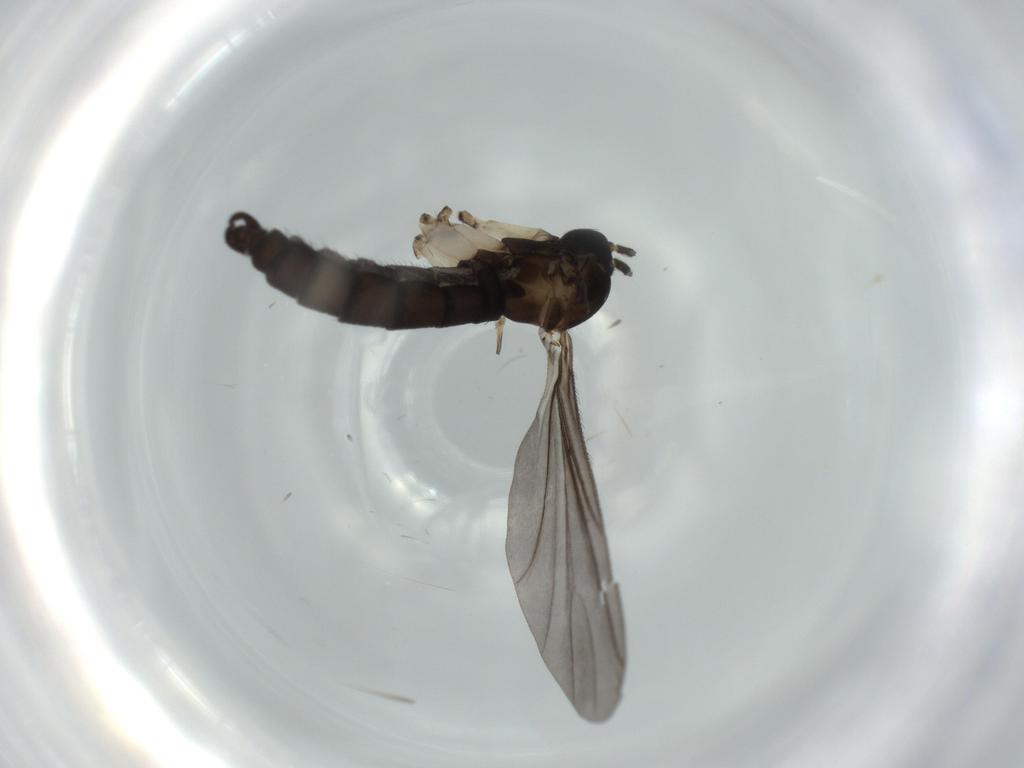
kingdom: Animalia
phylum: Arthropoda
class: Insecta
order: Diptera
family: Sciaridae
